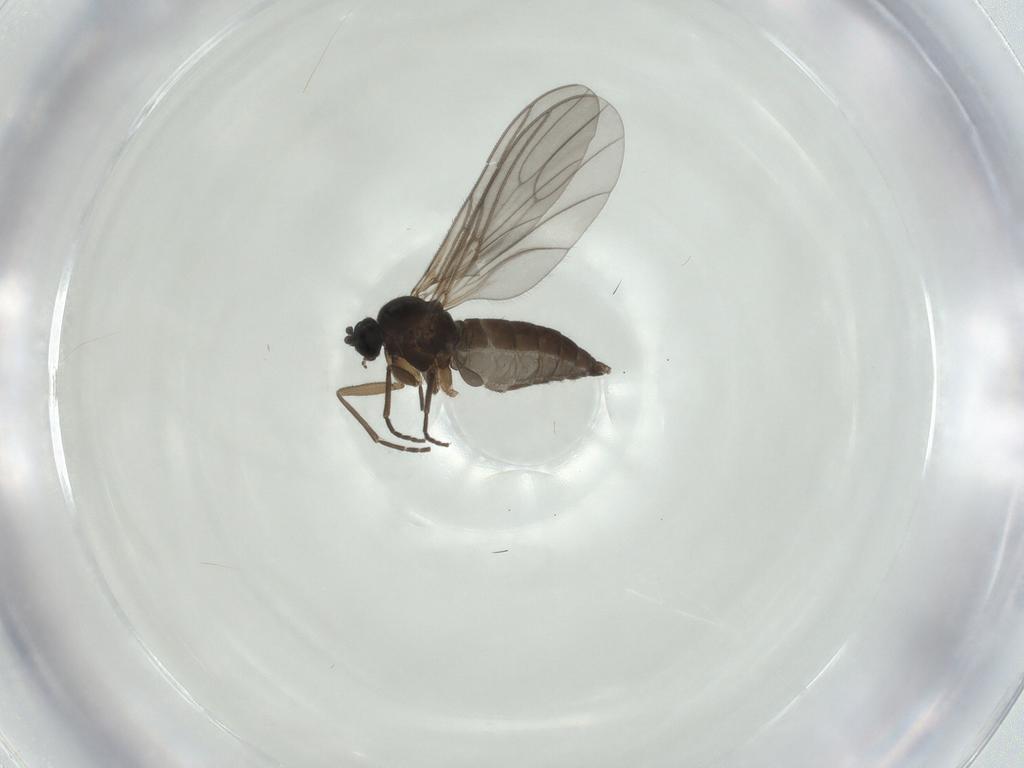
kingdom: Animalia
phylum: Arthropoda
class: Insecta
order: Diptera
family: Sciaridae
